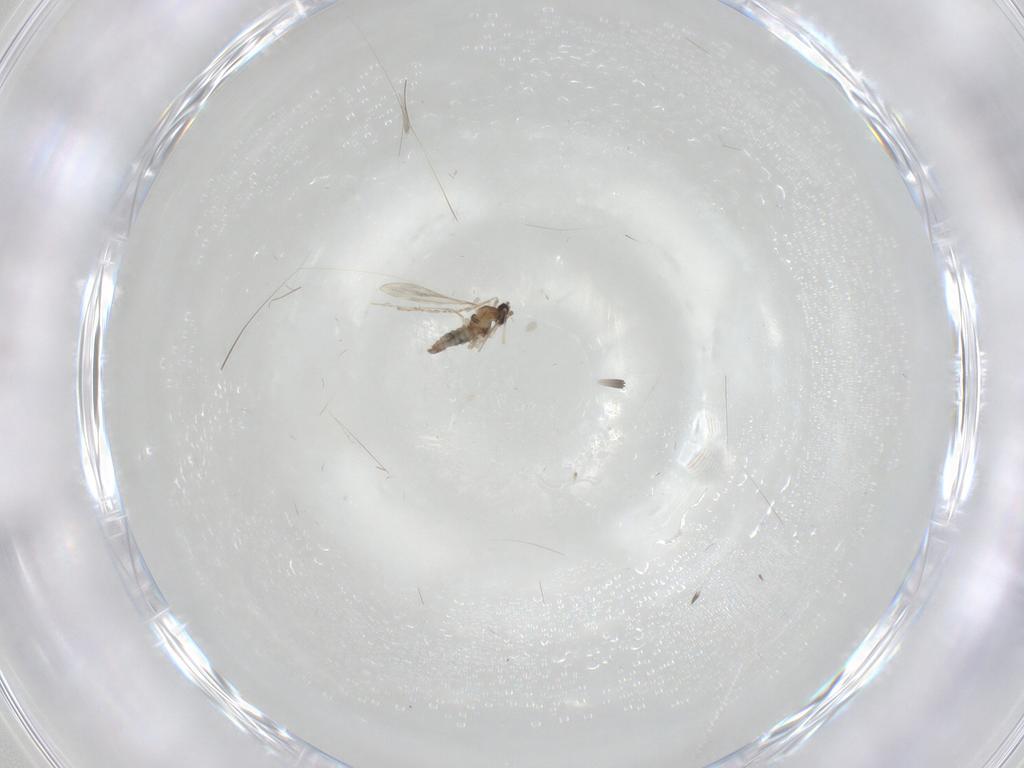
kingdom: Animalia
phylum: Arthropoda
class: Insecta
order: Diptera
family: Cecidomyiidae
